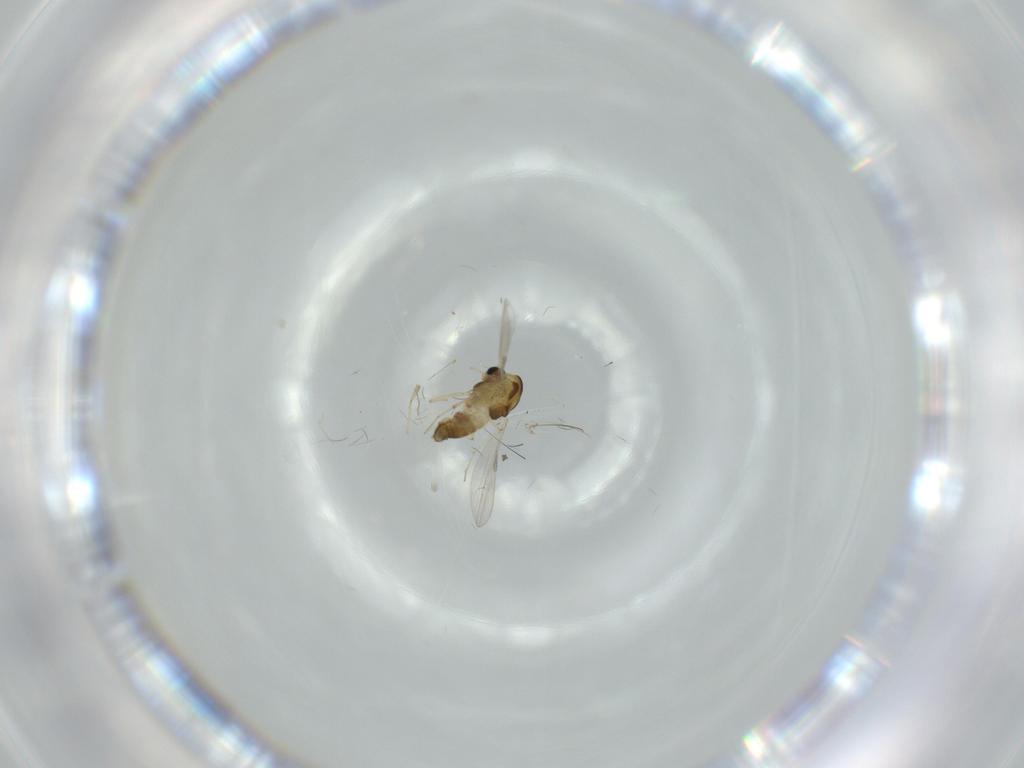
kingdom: Animalia
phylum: Arthropoda
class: Insecta
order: Diptera
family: Chironomidae
